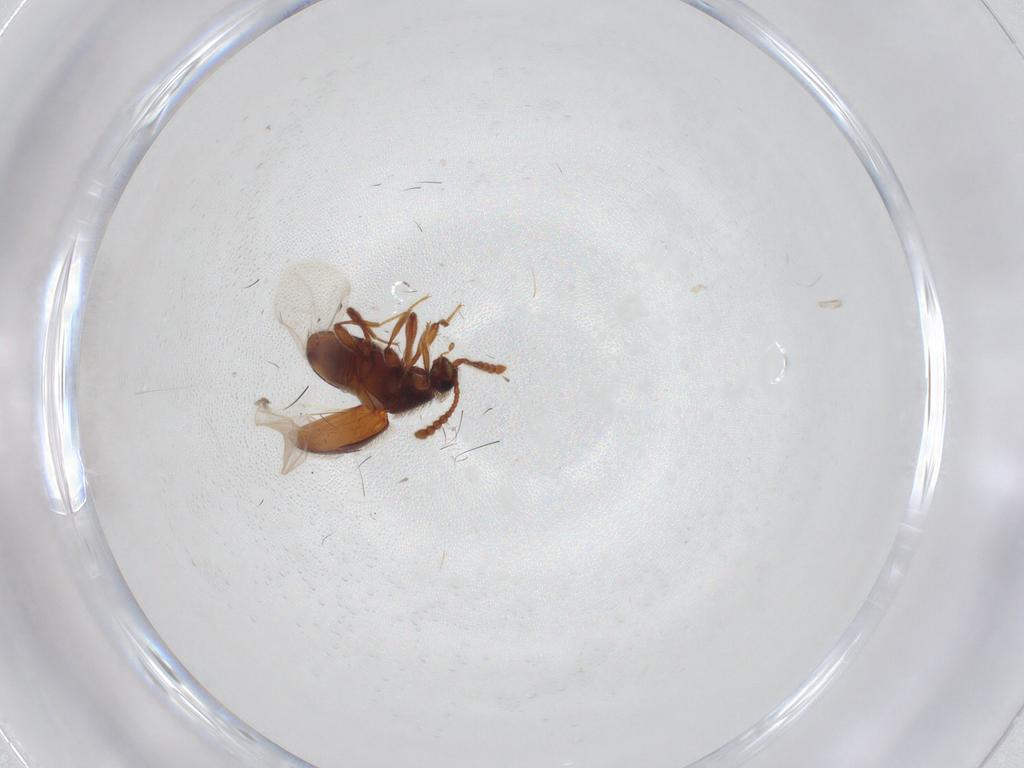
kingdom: Animalia
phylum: Arthropoda
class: Insecta
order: Coleoptera
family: Staphylinidae
